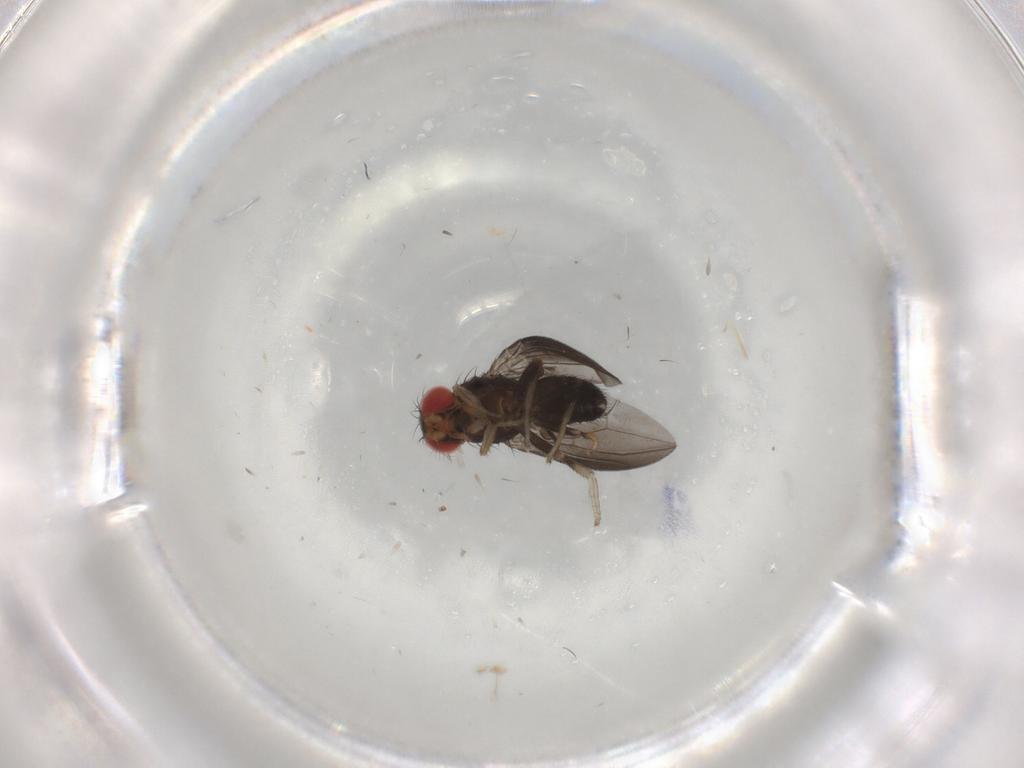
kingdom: Animalia
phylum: Arthropoda
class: Insecta
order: Diptera
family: Sciaridae
